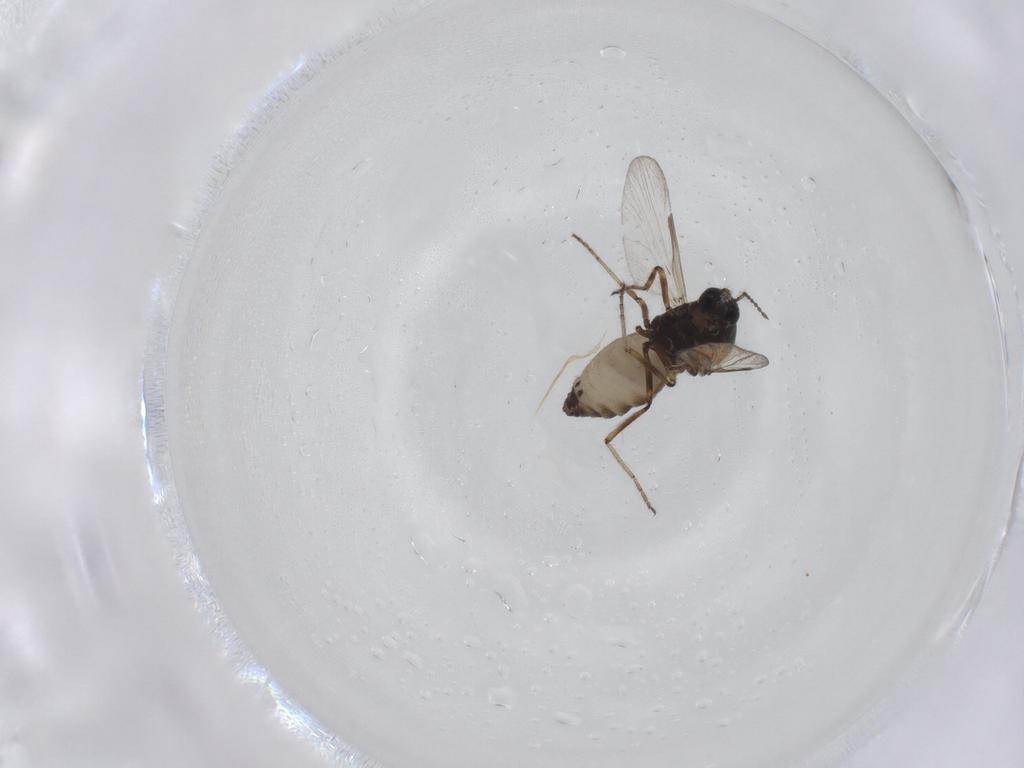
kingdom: Animalia
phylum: Arthropoda
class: Insecta
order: Diptera
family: Ceratopogonidae
